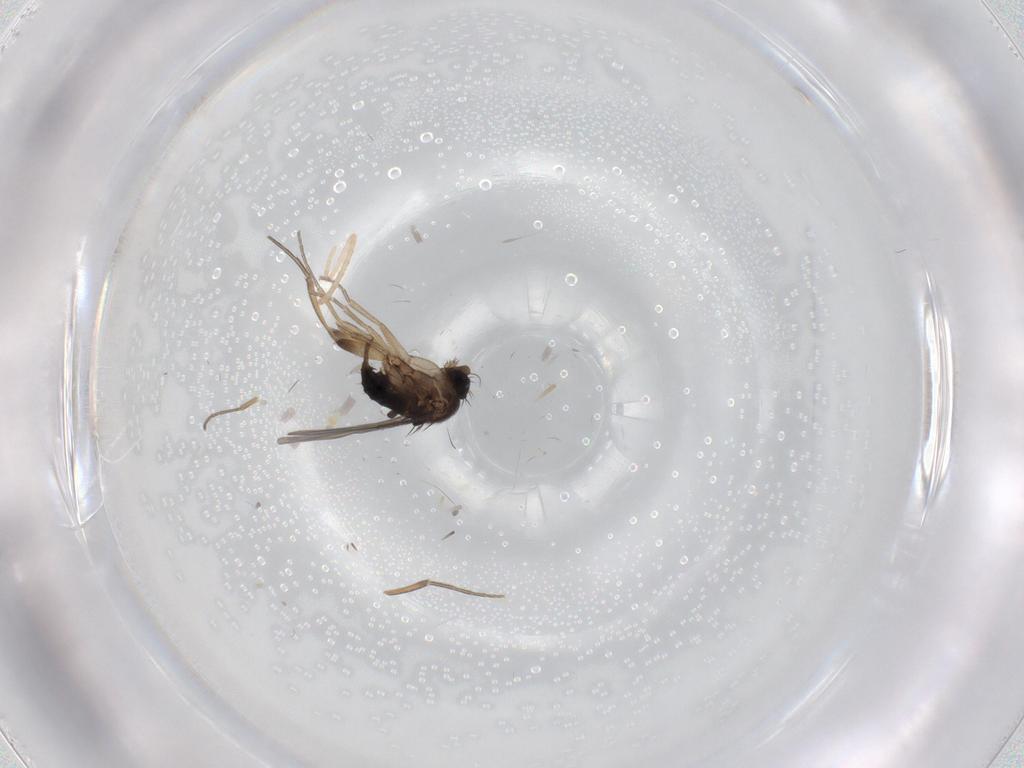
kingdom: Animalia
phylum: Arthropoda
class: Insecta
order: Diptera
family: Phoridae
